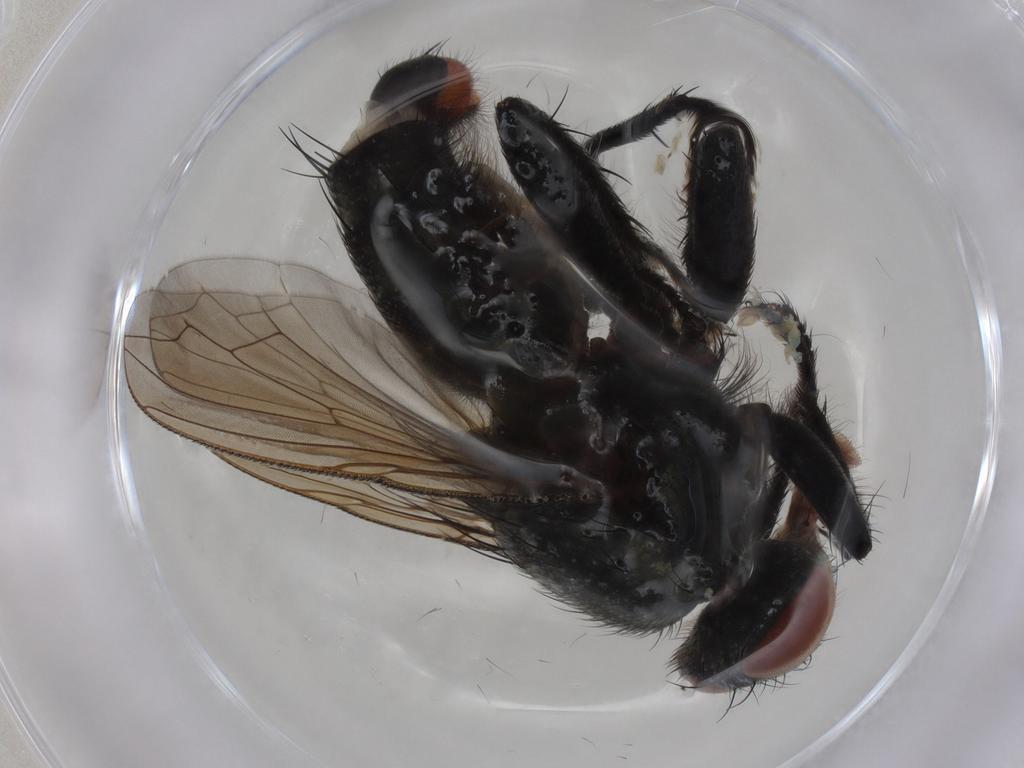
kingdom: Animalia
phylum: Arthropoda
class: Insecta
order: Diptera
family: Sarcophagidae
